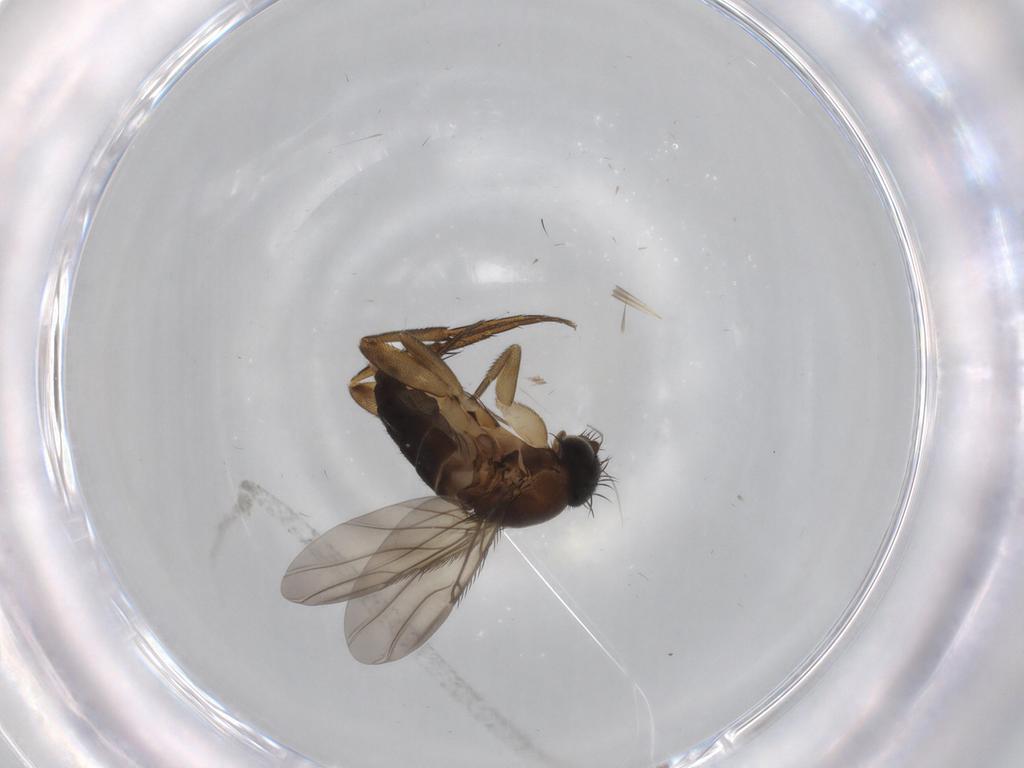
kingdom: Animalia
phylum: Arthropoda
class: Insecta
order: Diptera
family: Phoridae
